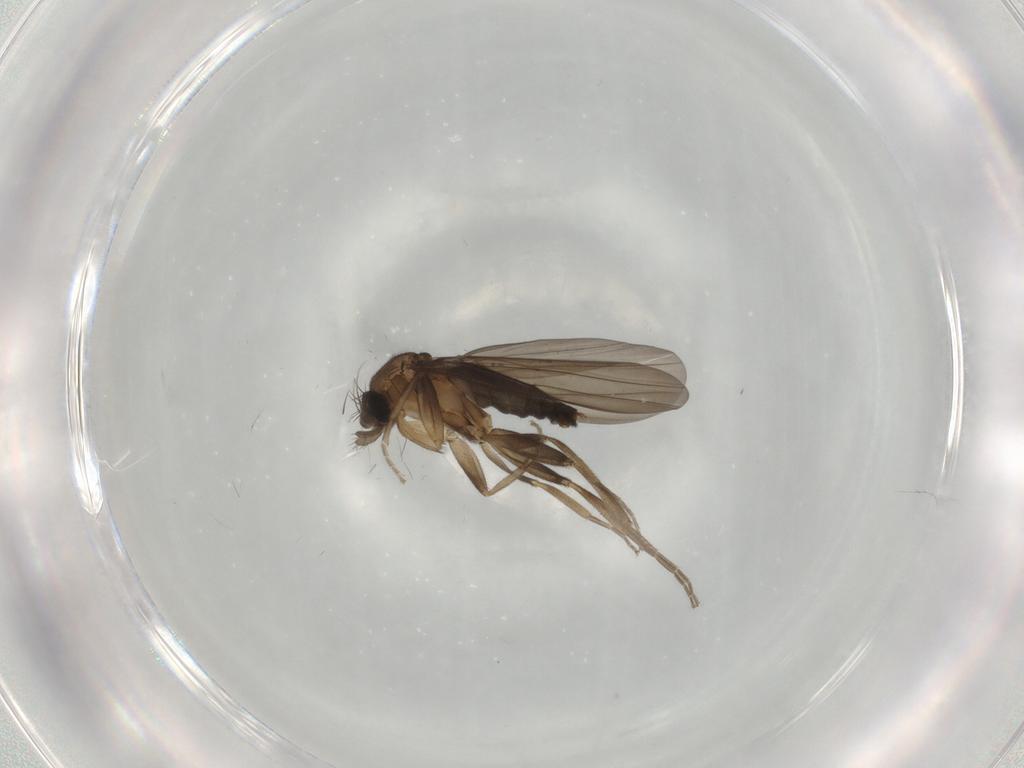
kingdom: Animalia
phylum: Arthropoda
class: Insecta
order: Diptera
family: Phoridae
